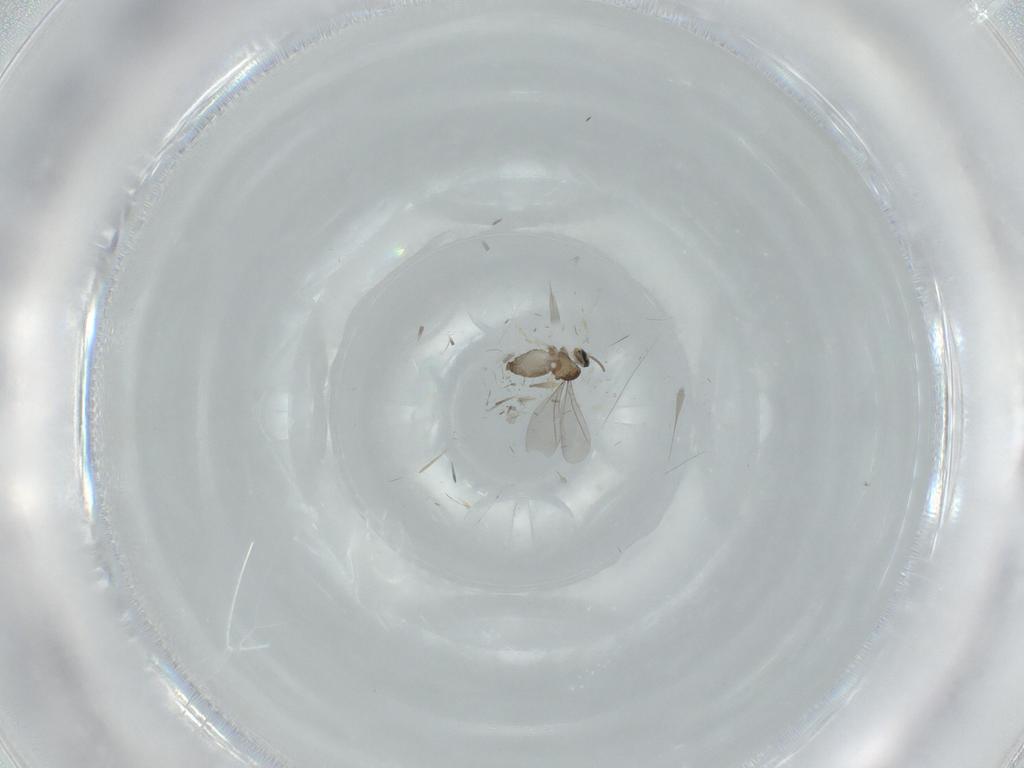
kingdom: Animalia
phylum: Arthropoda
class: Insecta
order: Diptera
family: Cecidomyiidae
